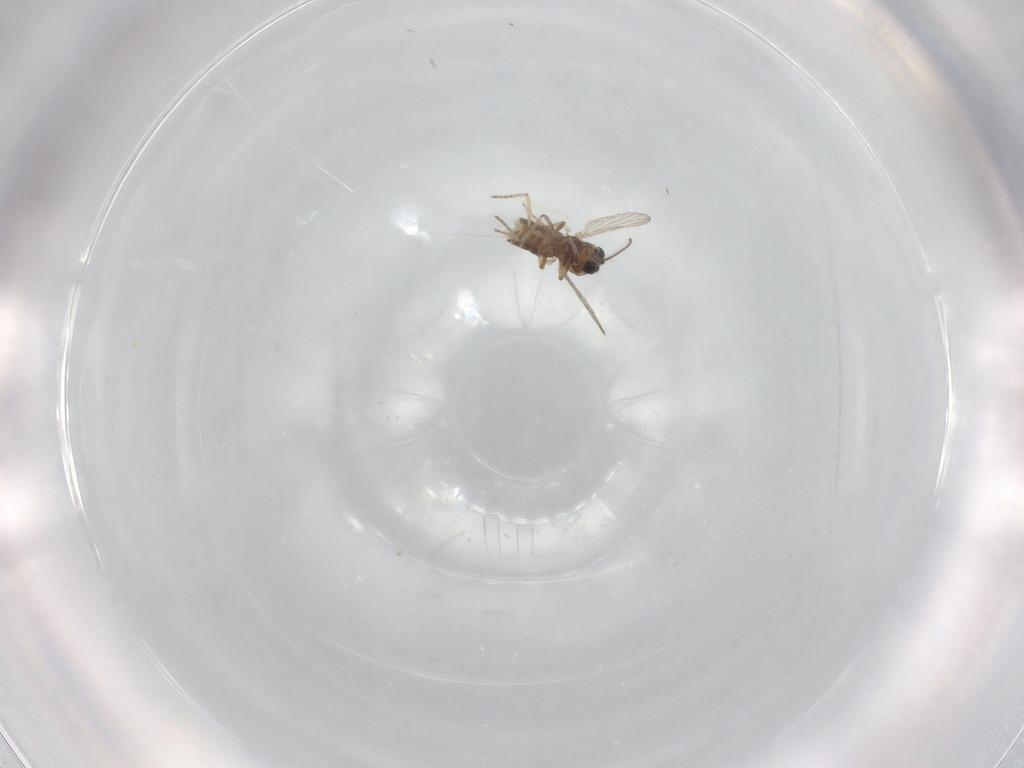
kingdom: Animalia
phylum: Arthropoda
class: Insecta
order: Diptera
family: Ceratopogonidae
